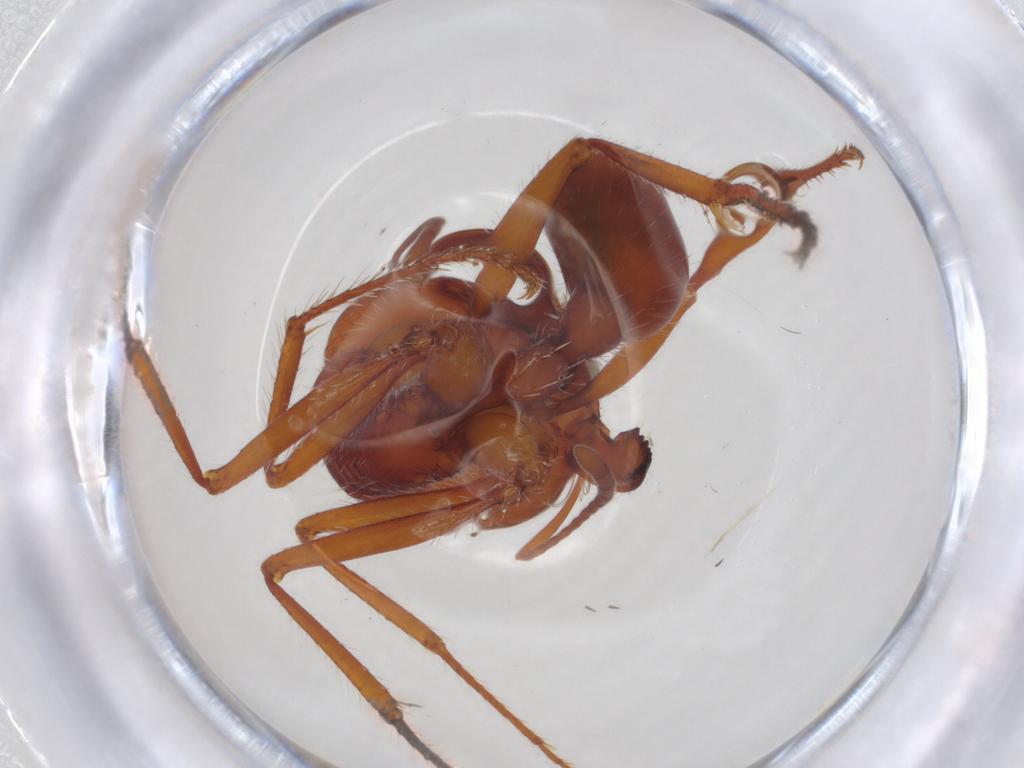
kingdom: Animalia
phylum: Arthropoda
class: Insecta
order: Hymenoptera
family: Formicidae
